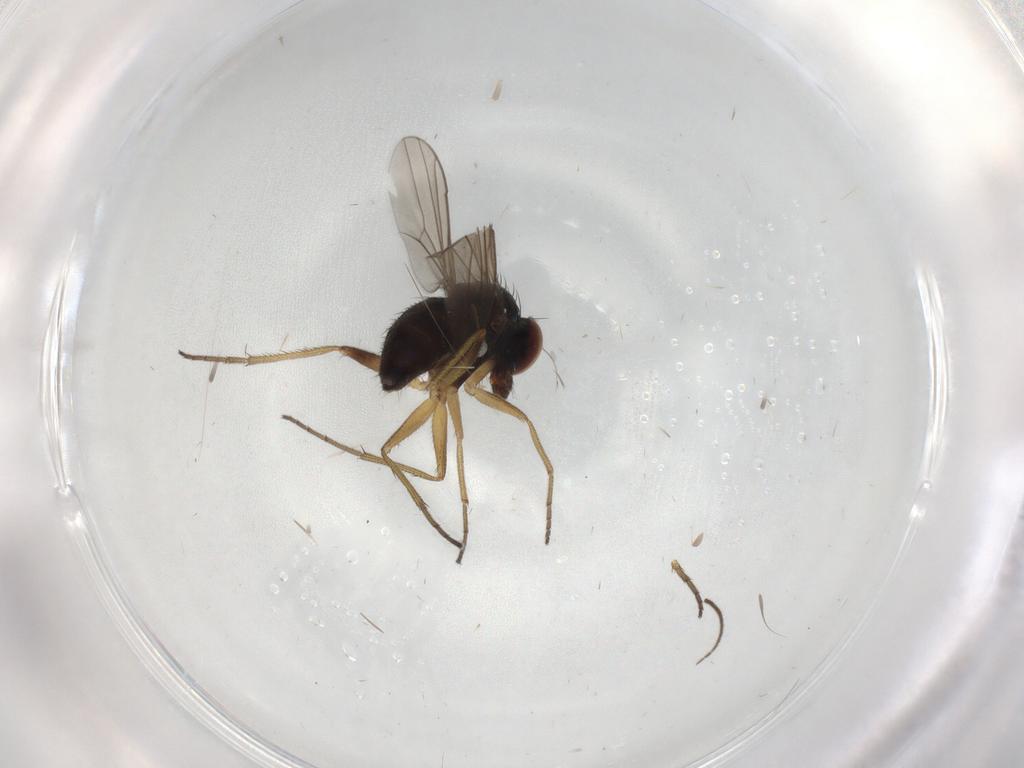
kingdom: Animalia
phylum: Arthropoda
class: Insecta
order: Diptera
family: Dolichopodidae
